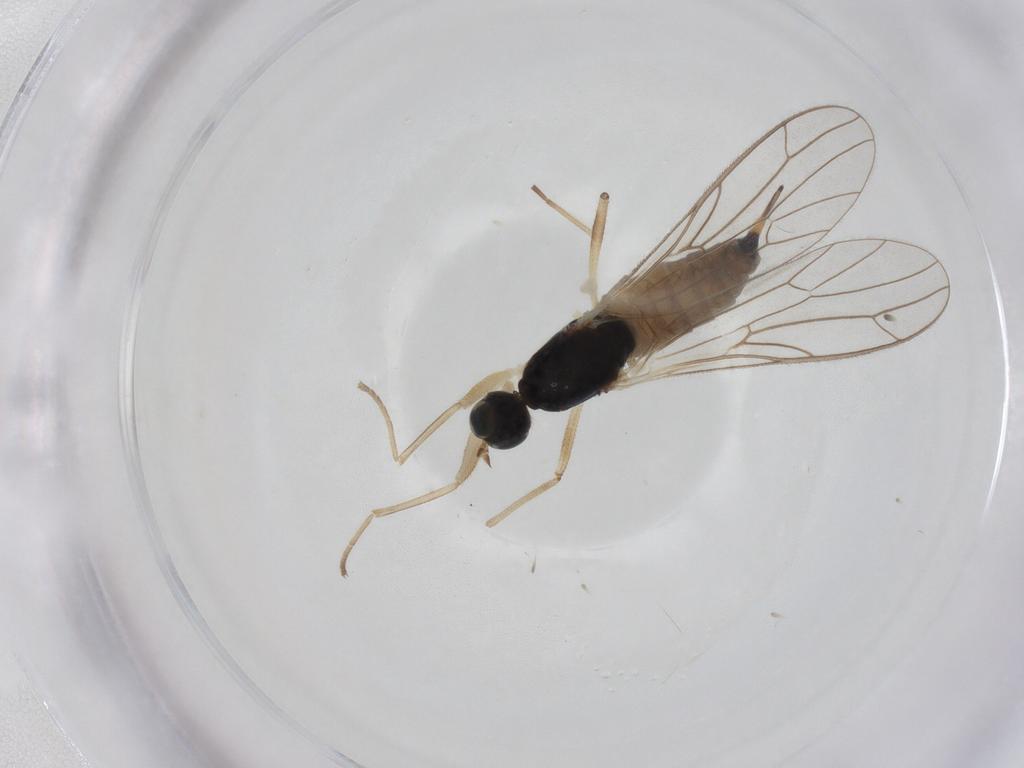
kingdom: Animalia
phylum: Arthropoda
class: Insecta
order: Diptera
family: Empididae
